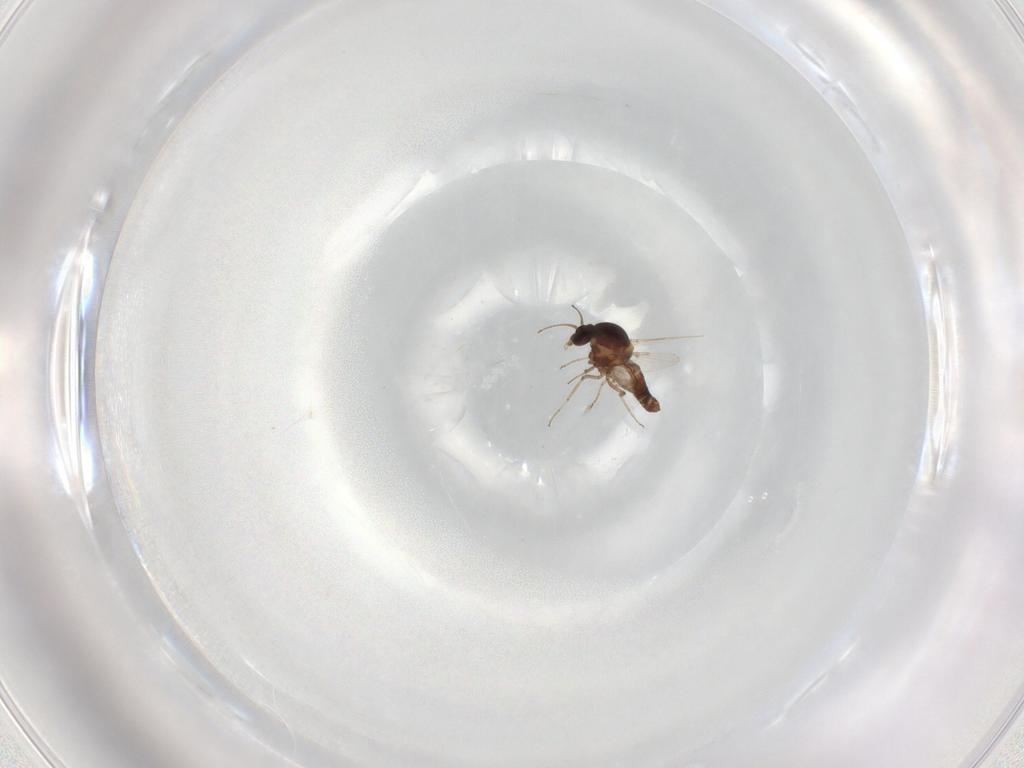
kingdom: Animalia
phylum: Arthropoda
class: Insecta
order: Diptera
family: Ceratopogonidae
